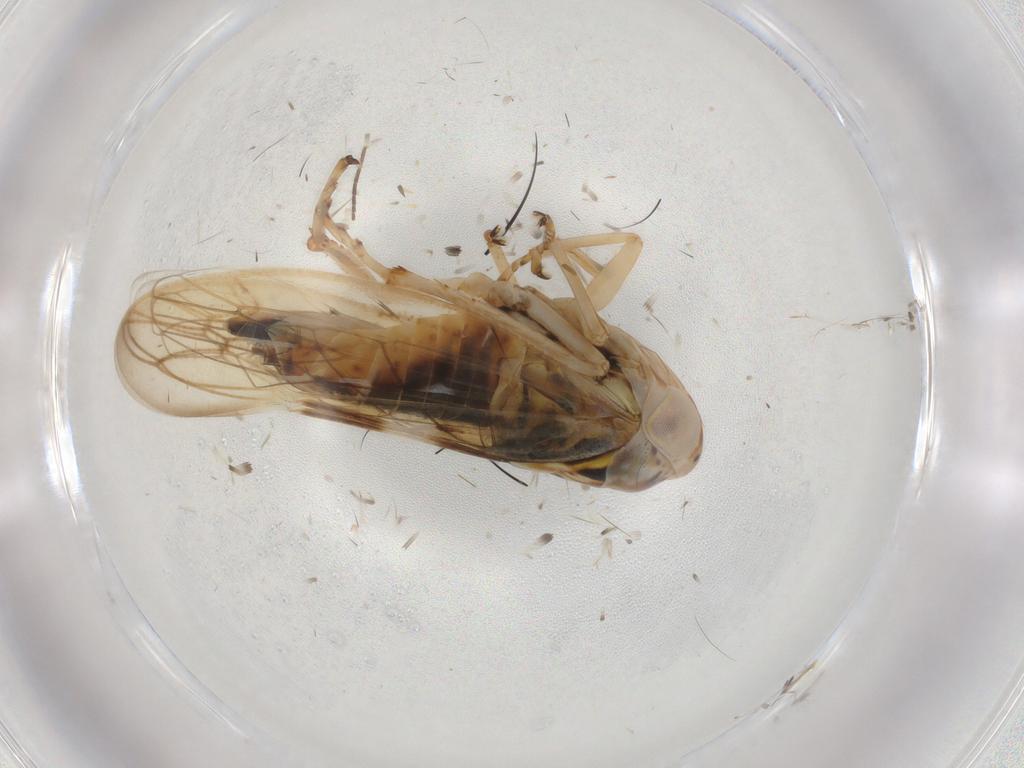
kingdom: Animalia
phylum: Arthropoda
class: Insecta
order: Hemiptera
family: Cicadellidae
